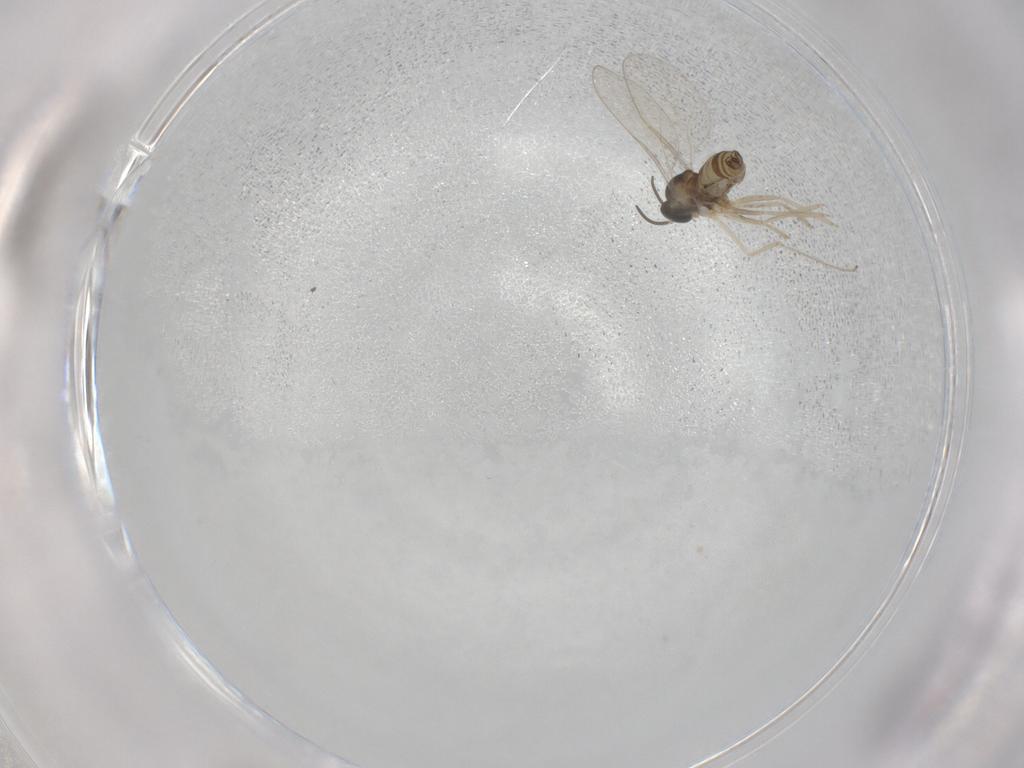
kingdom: Animalia
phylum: Arthropoda
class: Insecta
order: Diptera
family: Cecidomyiidae
